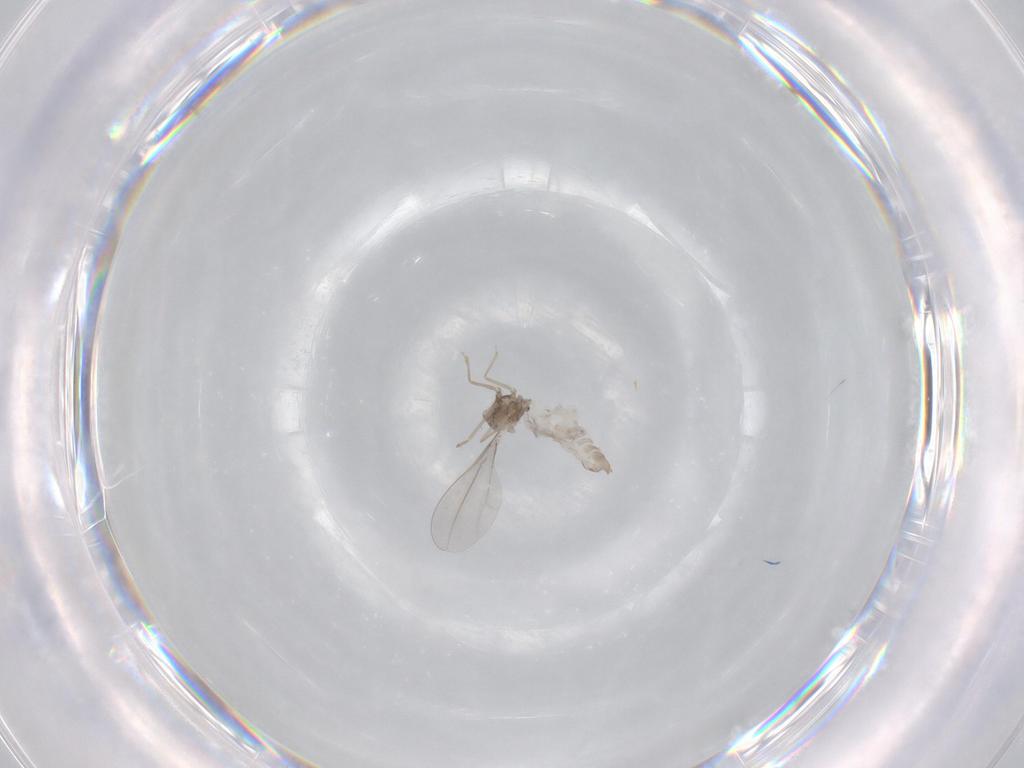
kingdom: Animalia
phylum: Arthropoda
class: Insecta
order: Diptera
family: Cecidomyiidae
